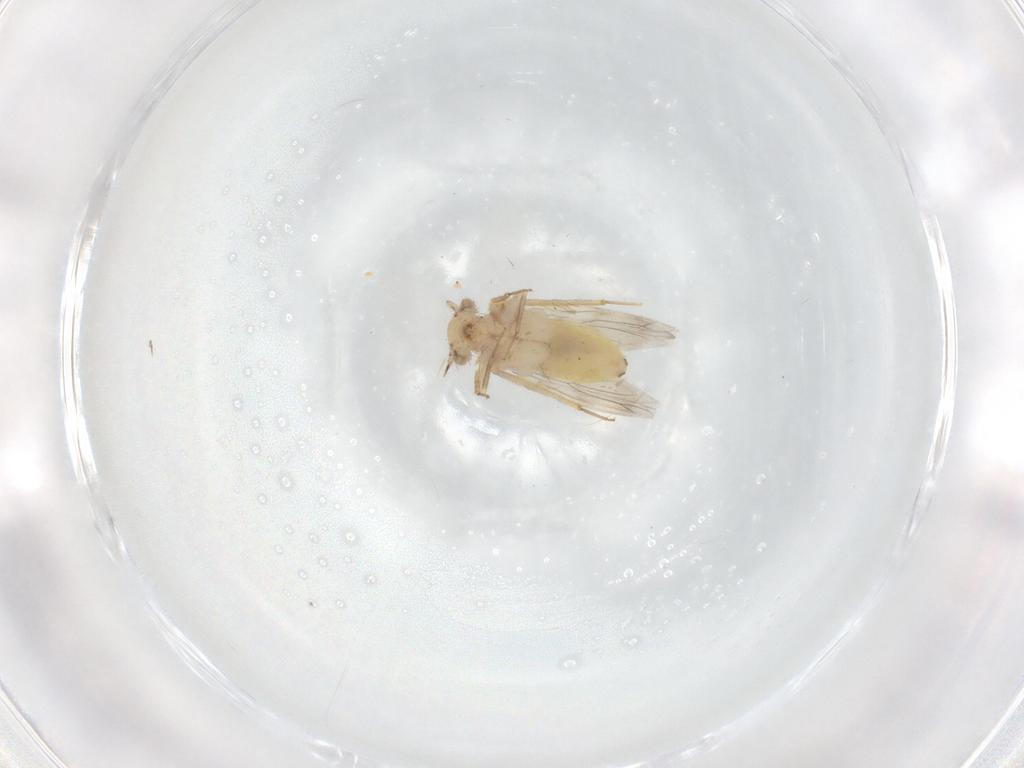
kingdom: Animalia
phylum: Arthropoda
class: Insecta
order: Psocodea
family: Lepidopsocidae
